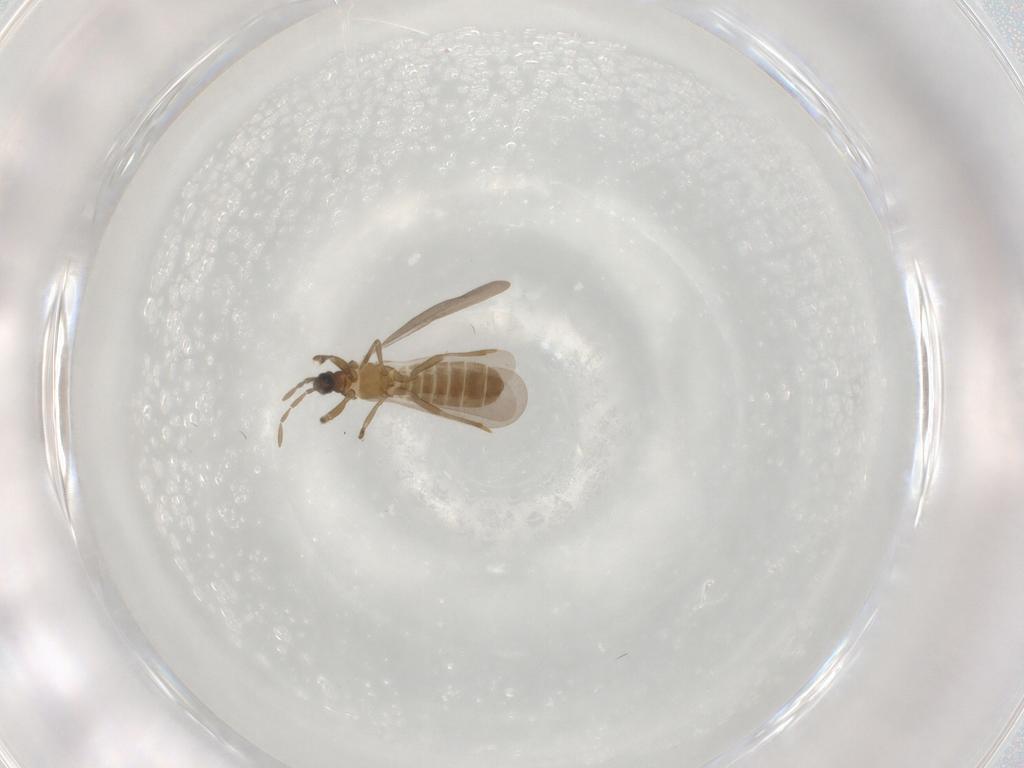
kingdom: Animalia
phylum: Arthropoda
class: Insecta
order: Hemiptera
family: Enicocephalidae
